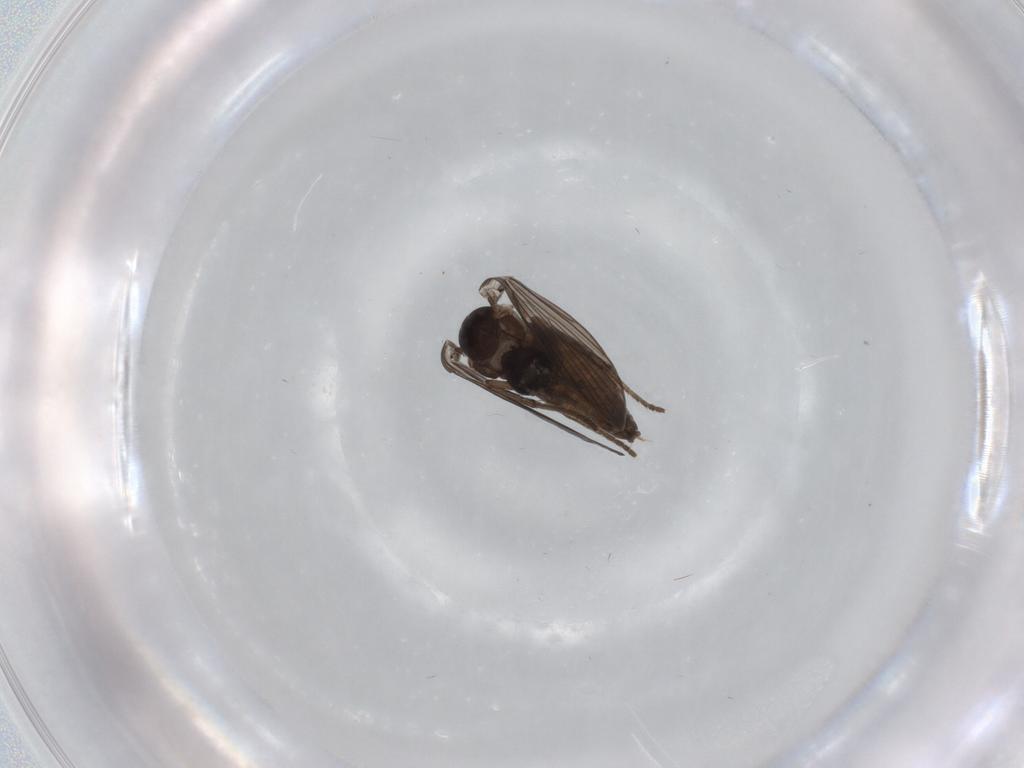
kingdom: Animalia
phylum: Arthropoda
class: Insecta
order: Diptera
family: Psychodidae
